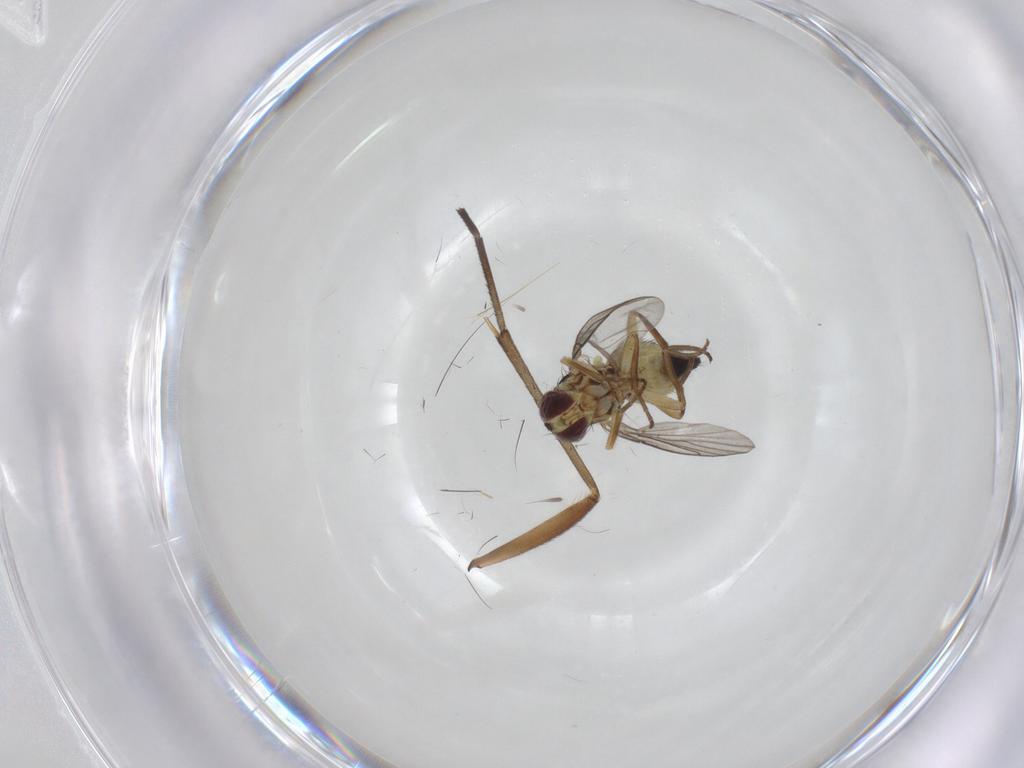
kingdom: Animalia
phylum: Arthropoda
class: Insecta
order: Diptera
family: Agromyzidae
